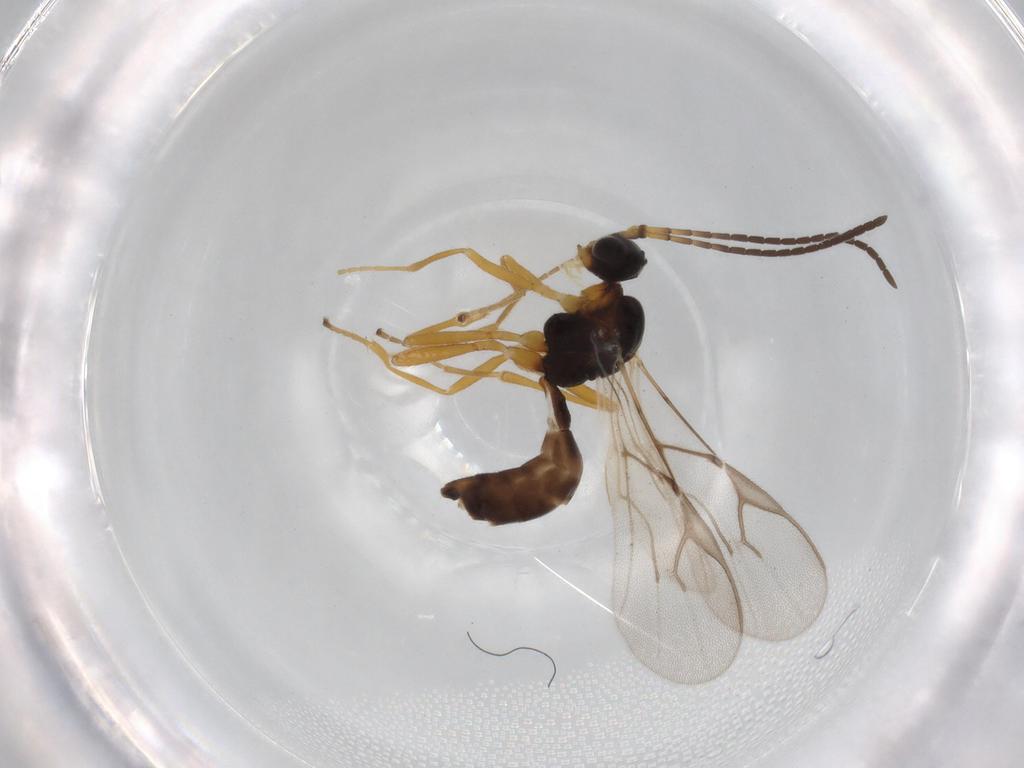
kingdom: Animalia
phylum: Arthropoda
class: Insecta
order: Hymenoptera
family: Braconidae
